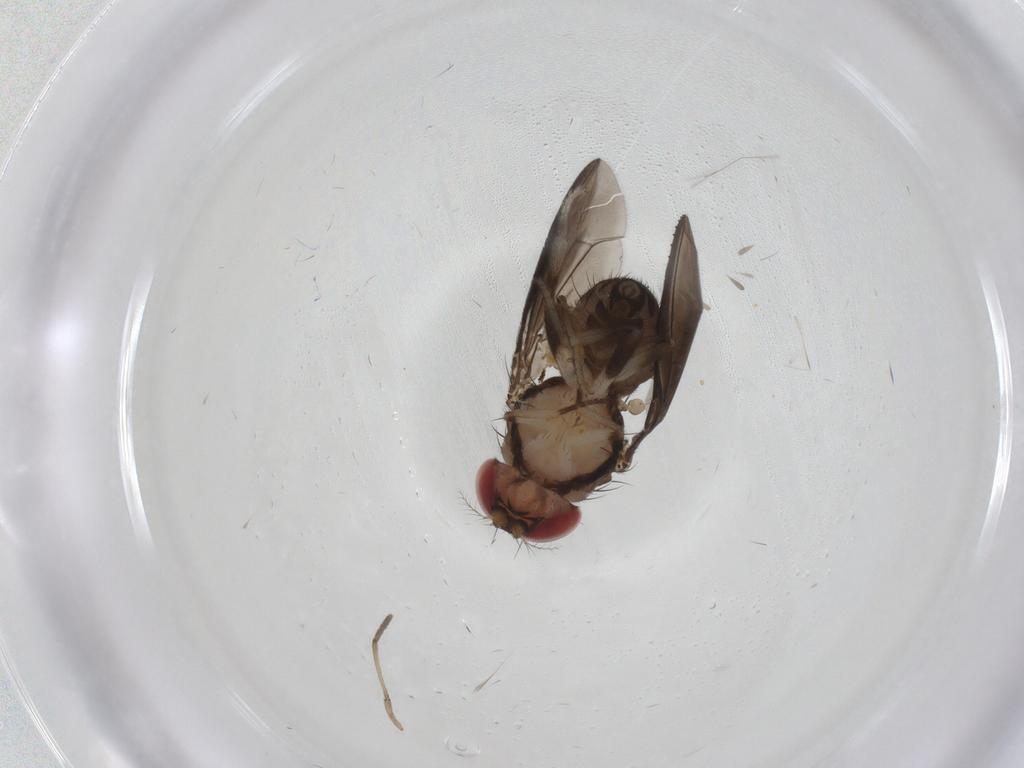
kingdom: Animalia
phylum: Arthropoda
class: Insecta
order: Diptera
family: Drosophilidae
